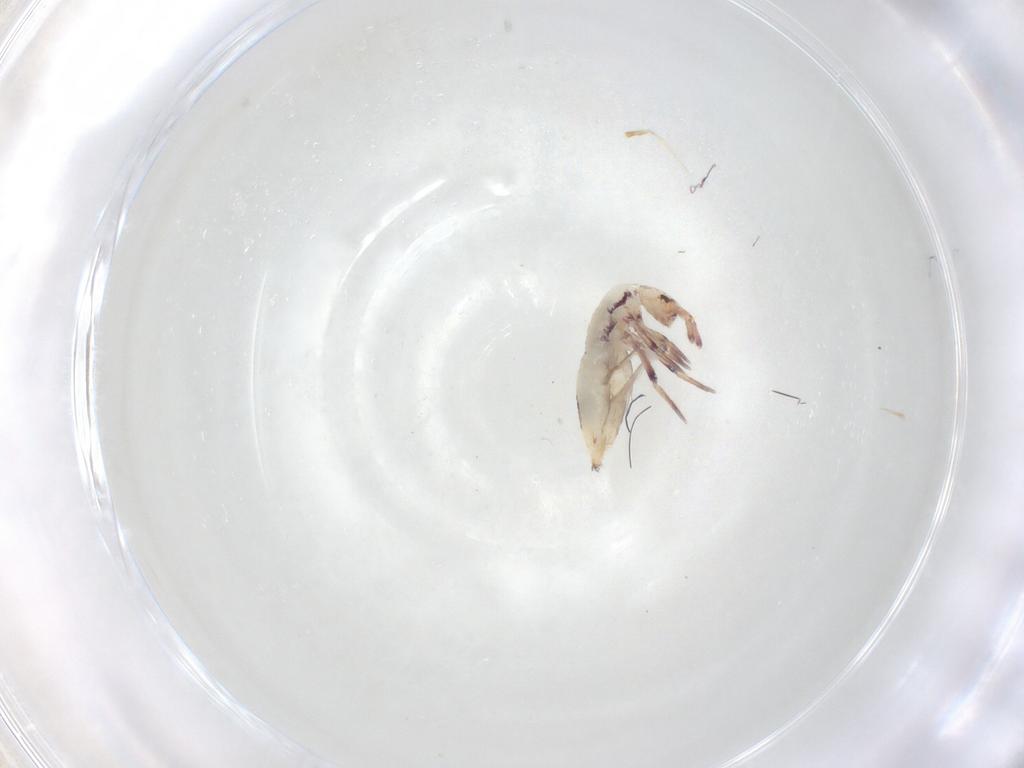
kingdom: Animalia
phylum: Arthropoda
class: Collembola
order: Entomobryomorpha
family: Entomobryidae
